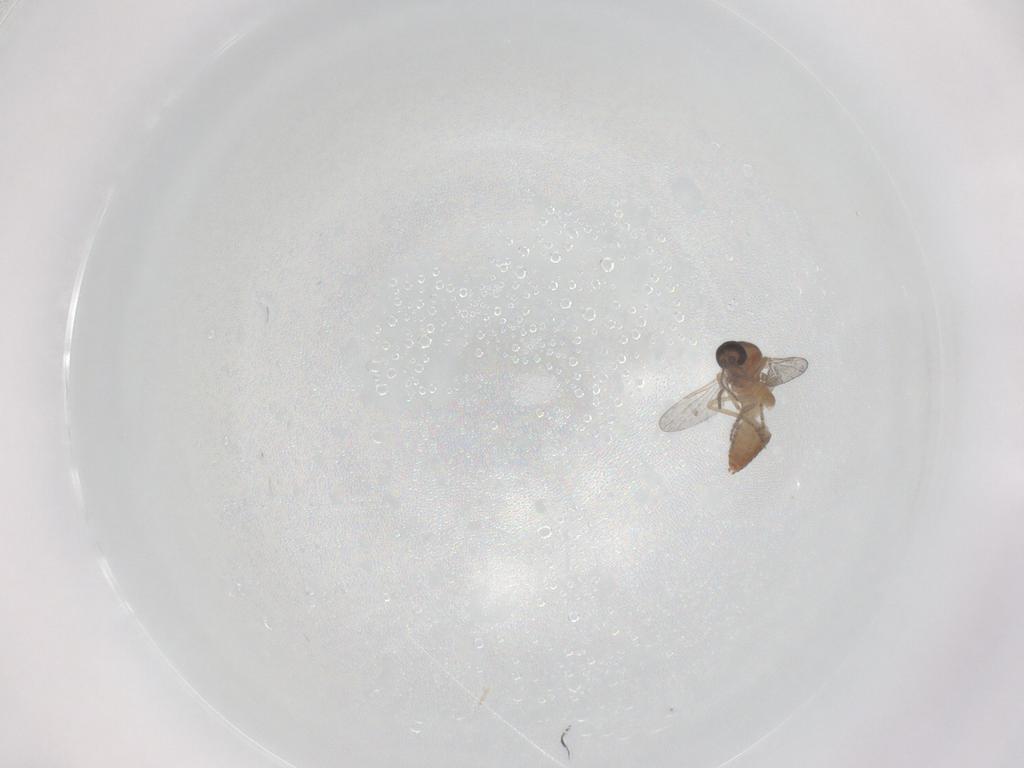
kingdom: Animalia
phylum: Arthropoda
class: Insecta
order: Diptera
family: Ceratopogonidae
